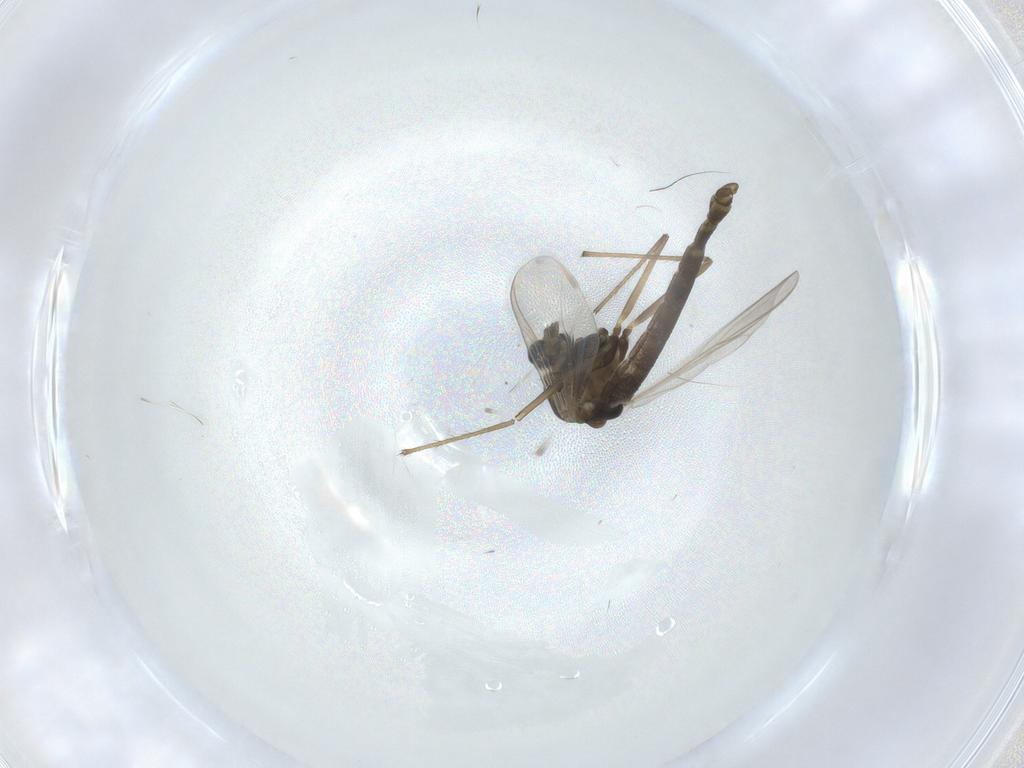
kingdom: Animalia
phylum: Arthropoda
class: Insecta
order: Diptera
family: Chironomidae
